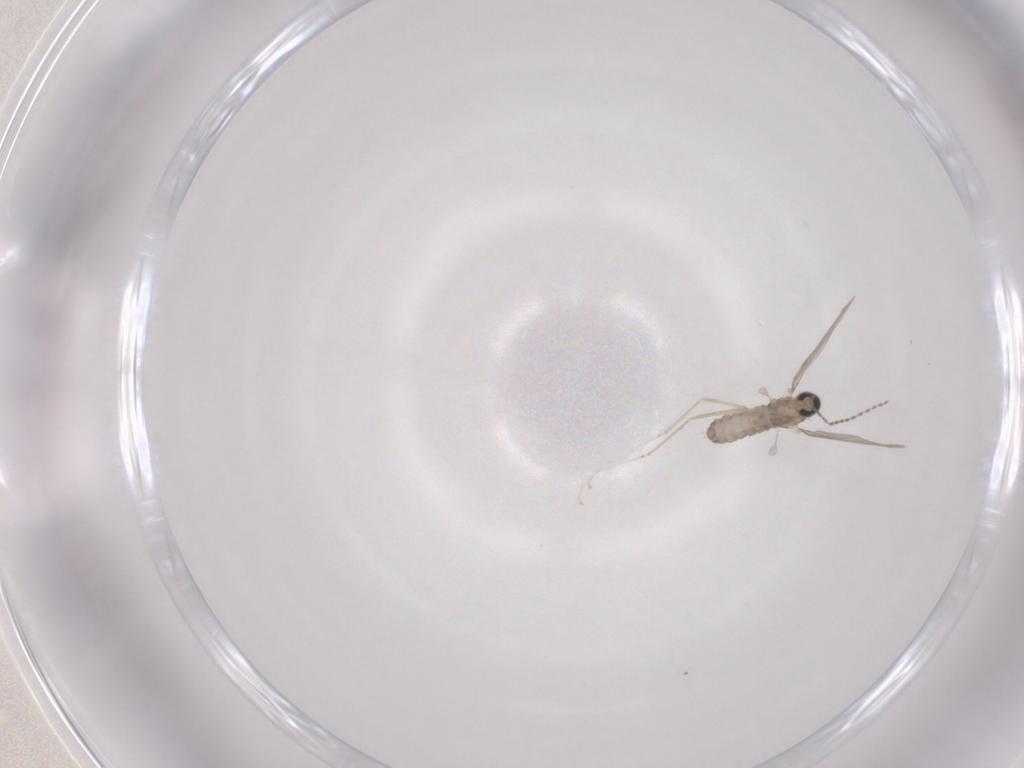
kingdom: Animalia
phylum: Arthropoda
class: Insecta
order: Diptera
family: Cecidomyiidae
